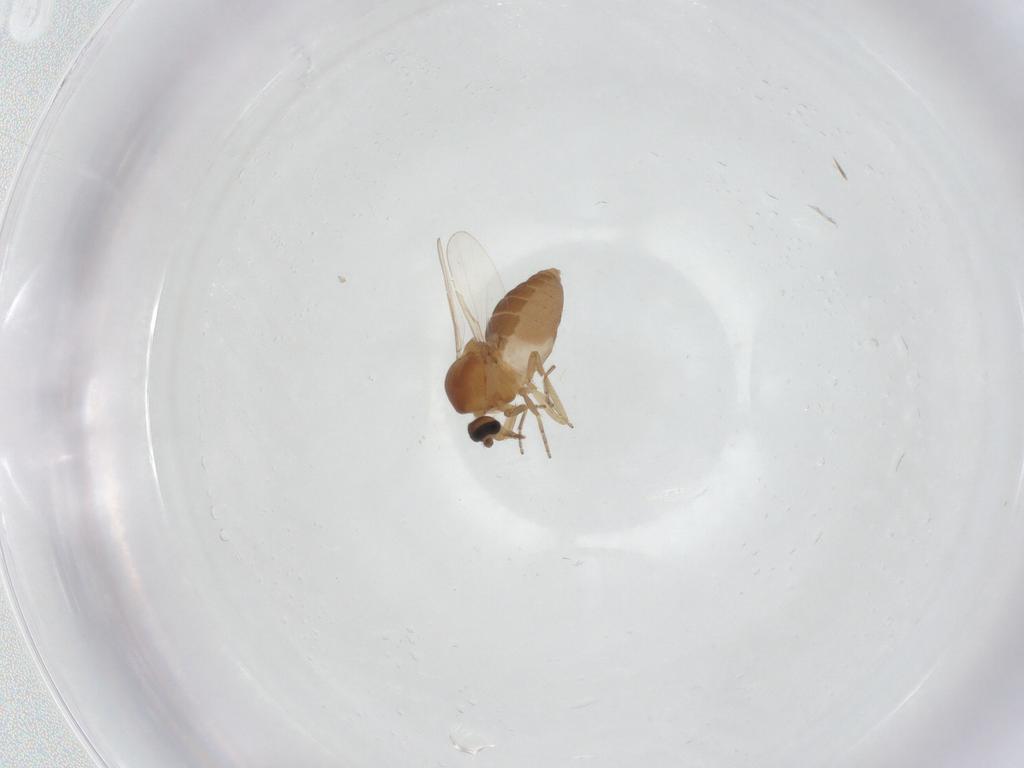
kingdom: Animalia
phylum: Arthropoda
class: Insecta
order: Diptera
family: Ceratopogonidae
